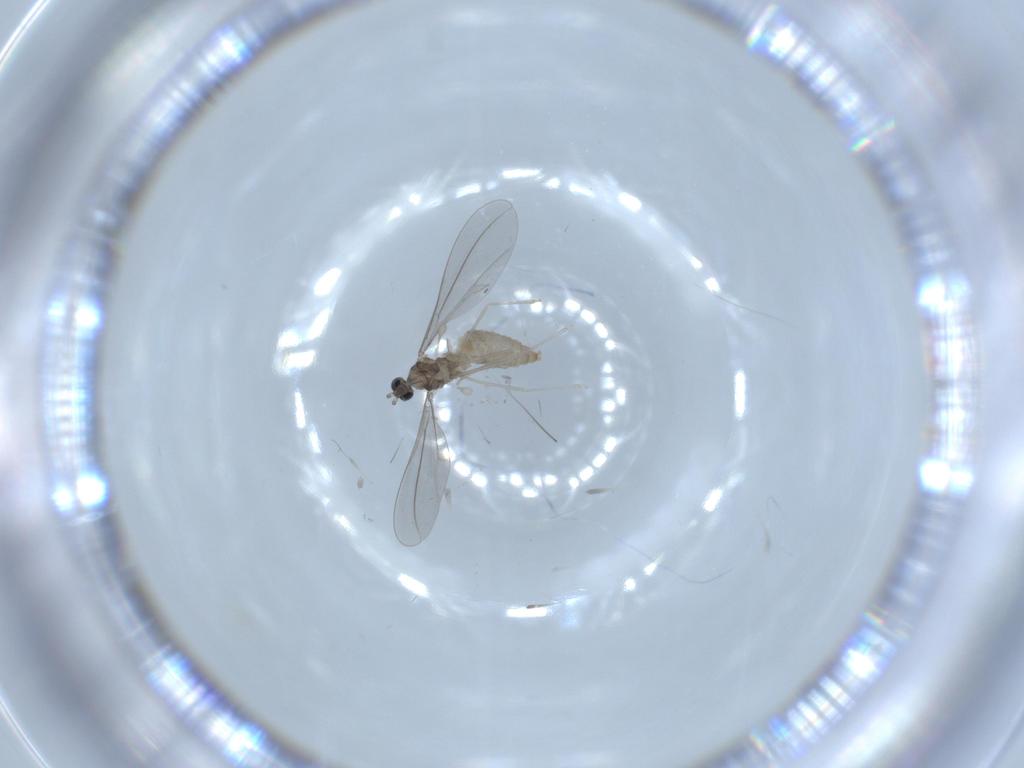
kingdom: Animalia
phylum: Arthropoda
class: Insecta
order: Diptera
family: Cecidomyiidae
